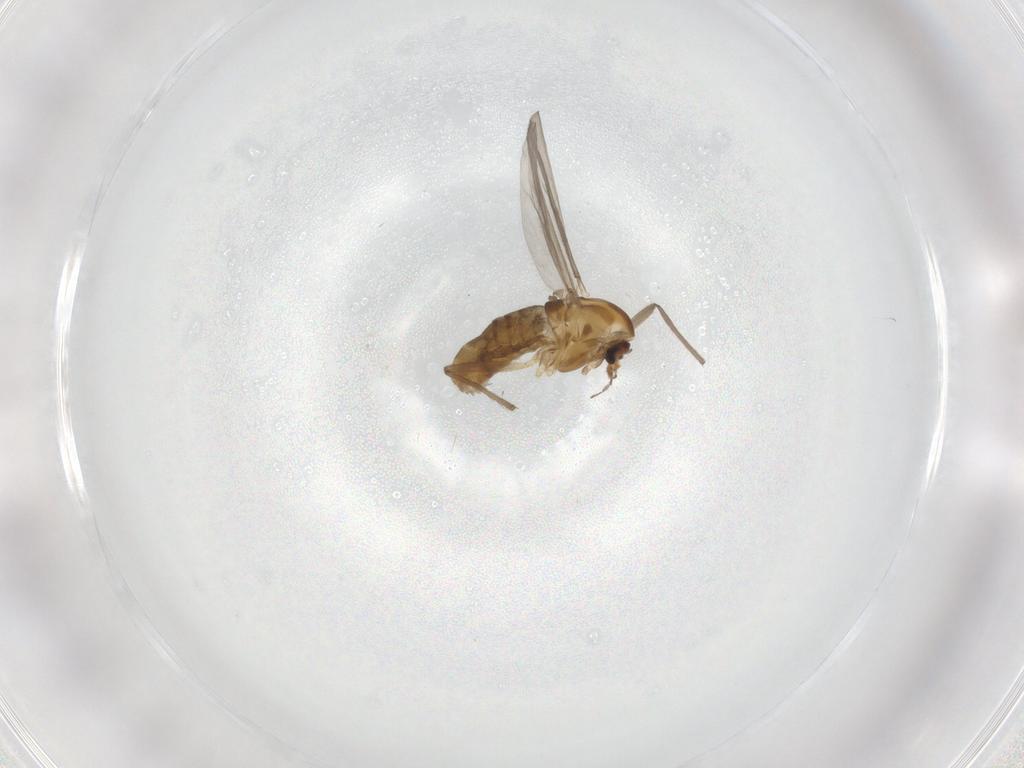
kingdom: Animalia
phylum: Arthropoda
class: Insecta
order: Diptera
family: Chironomidae
